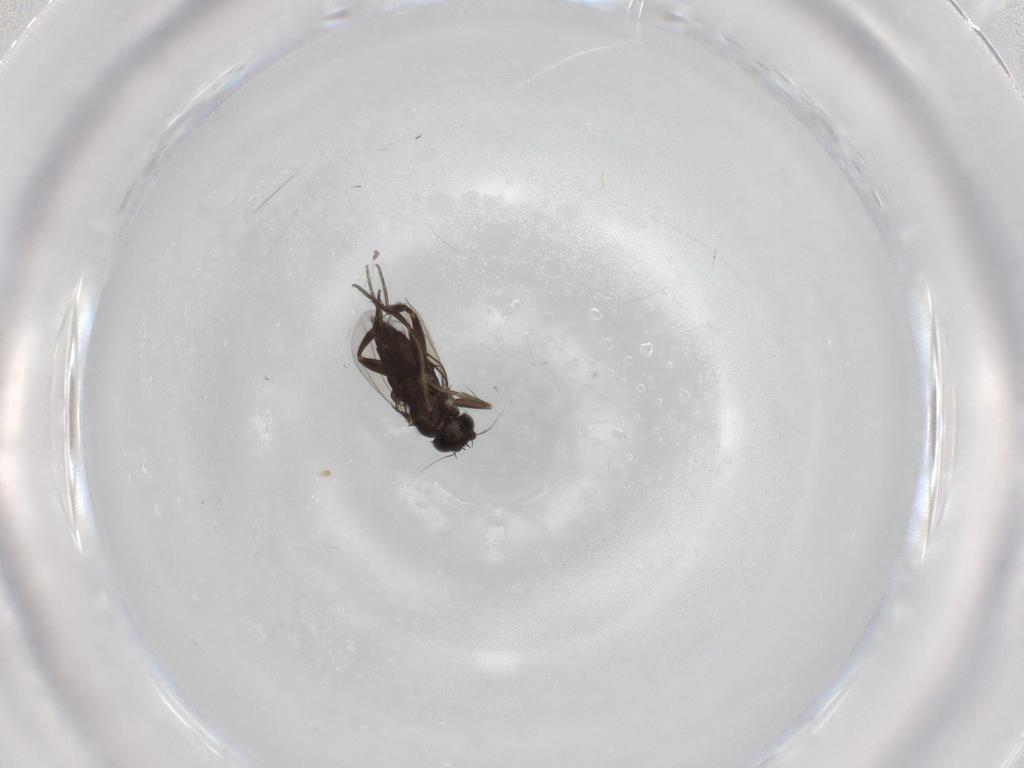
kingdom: Animalia
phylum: Arthropoda
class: Insecta
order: Diptera
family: Phoridae
